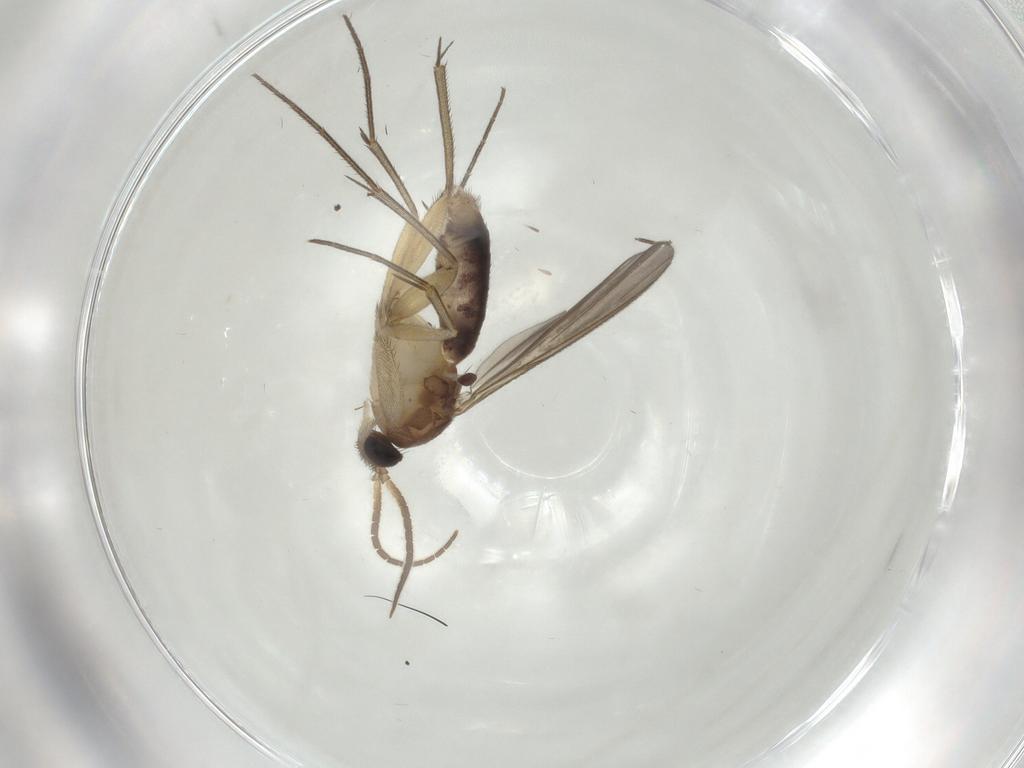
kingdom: Animalia
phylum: Arthropoda
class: Insecta
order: Diptera
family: Mycetophilidae
